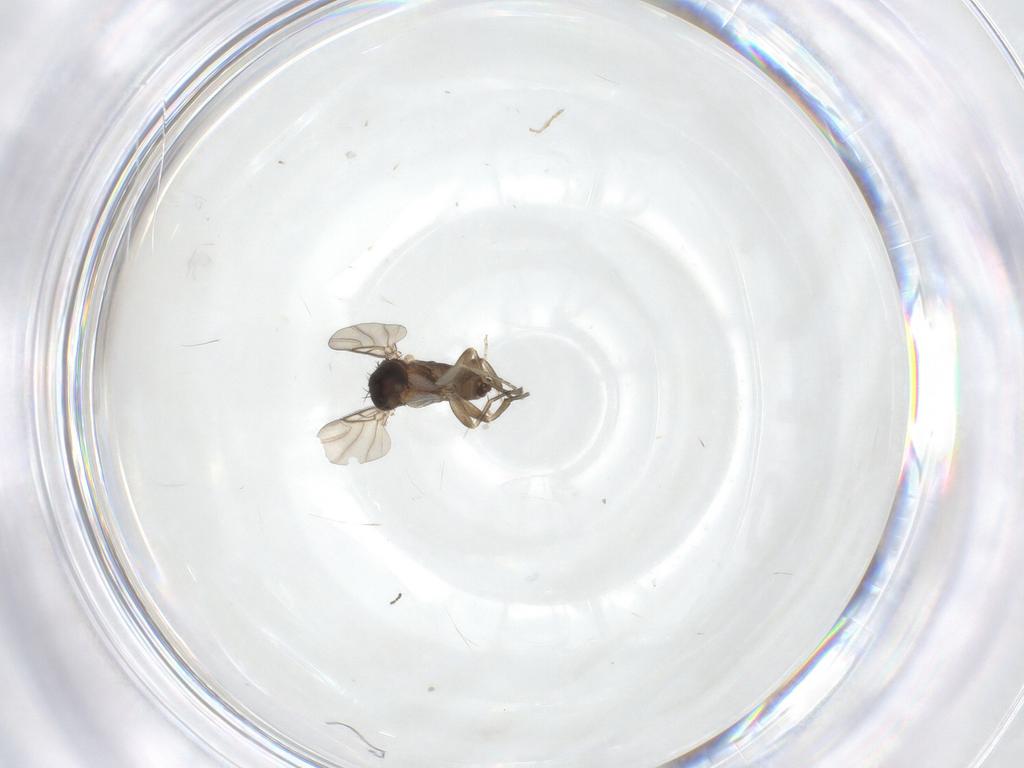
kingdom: Animalia
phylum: Arthropoda
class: Insecta
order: Diptera
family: Phoridae
